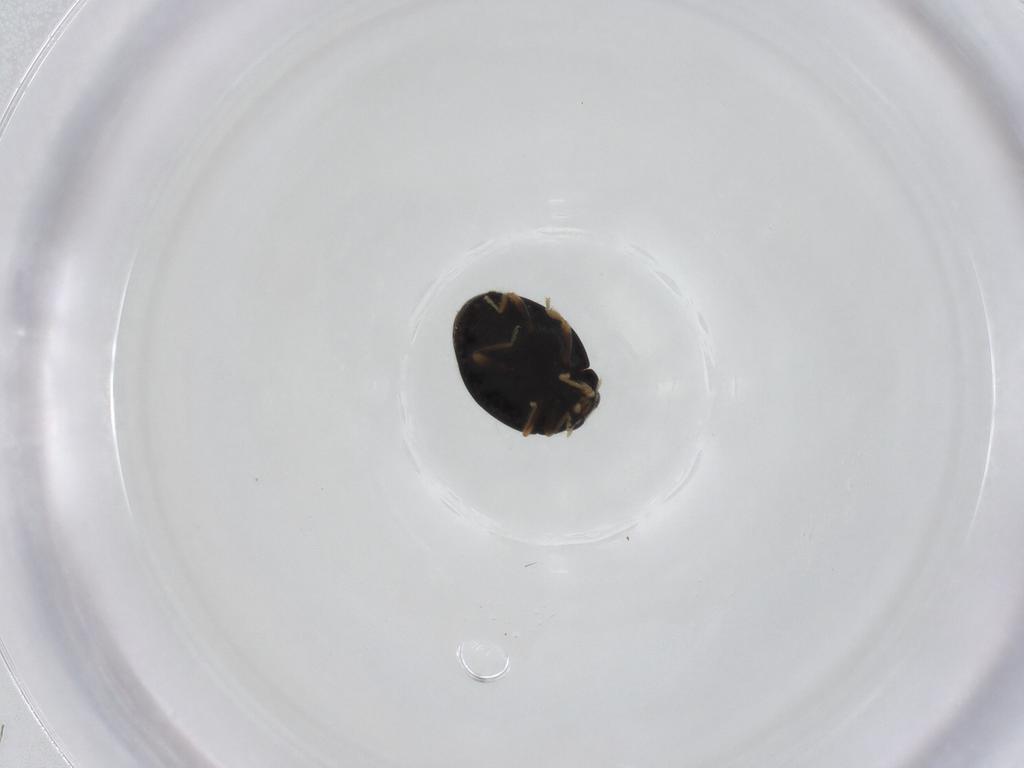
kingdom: Animalia
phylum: Arthropoda
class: Insecta
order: Coleoptera
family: Coccinellidae
